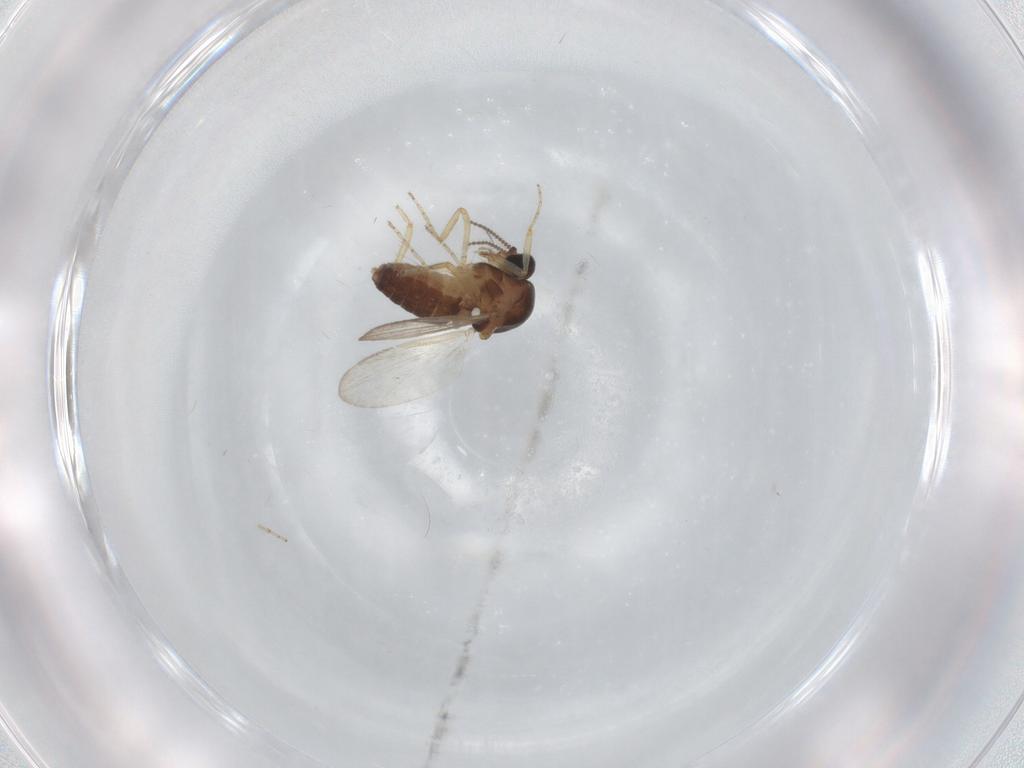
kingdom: Animalia
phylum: Arthropoda
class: Insecta
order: Diptera
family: Ceratopogonidae
